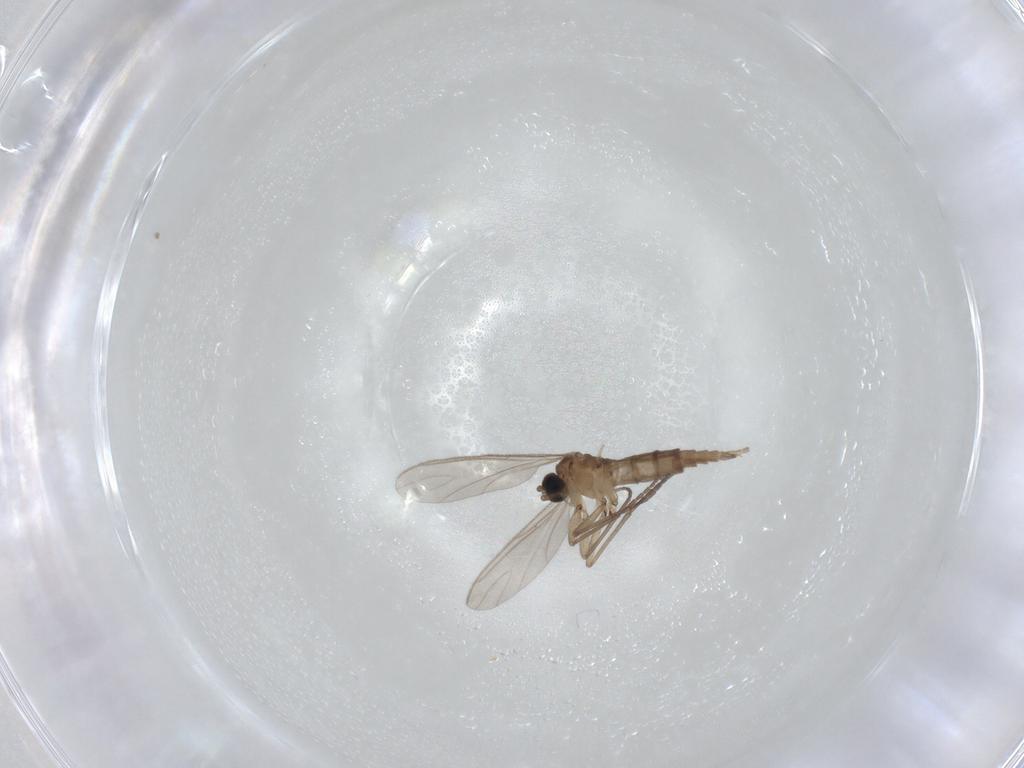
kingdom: Animalia
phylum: Arthropoda
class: Insecta
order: Diptera
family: Sciaridae
